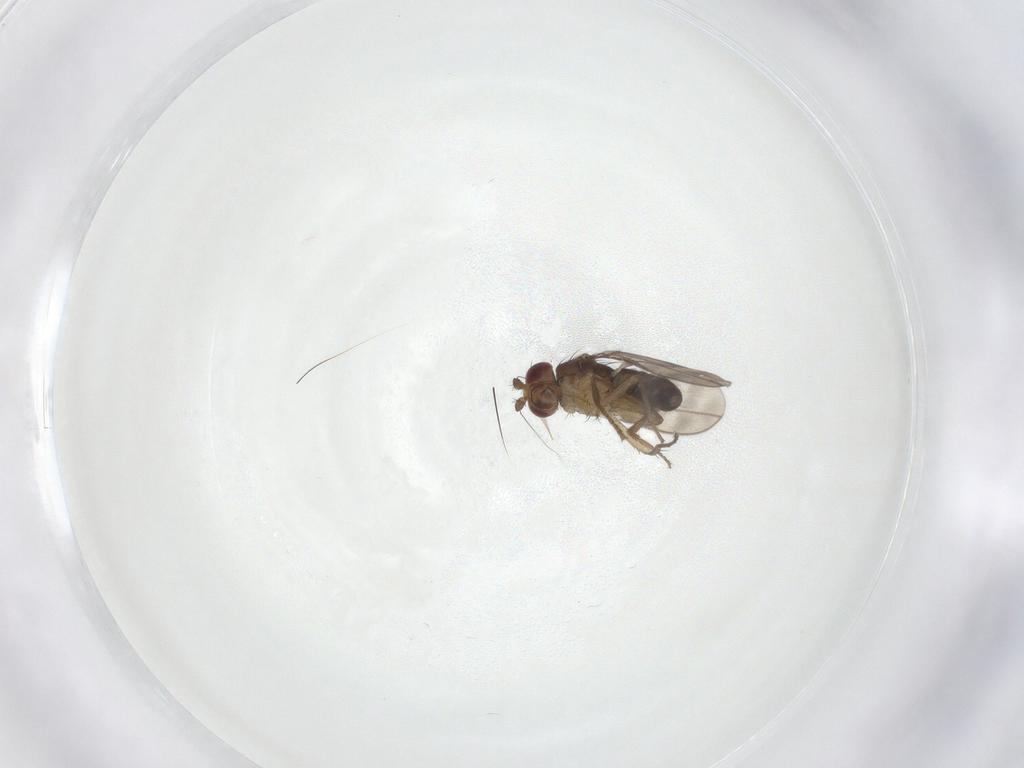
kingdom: Animalia
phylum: Arthropoda
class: Insecta
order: Diptera
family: Sphaeroceridae
